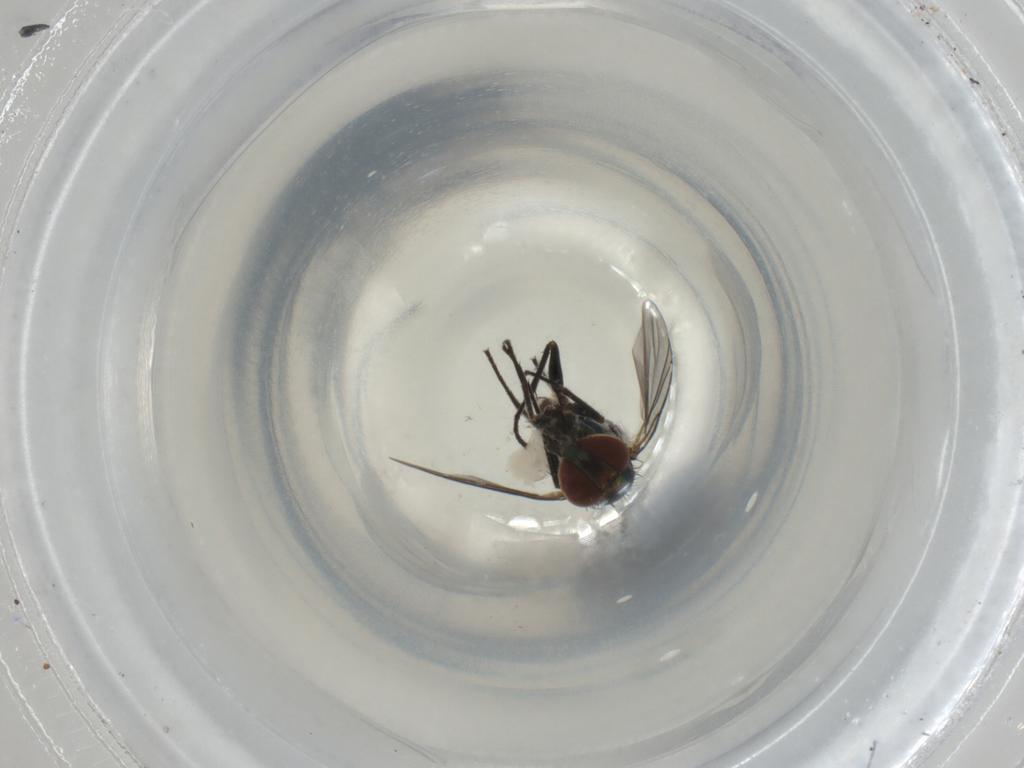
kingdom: Animalia
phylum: Arthropoda
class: Insecta
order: Diptera
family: Dolichopodidae
